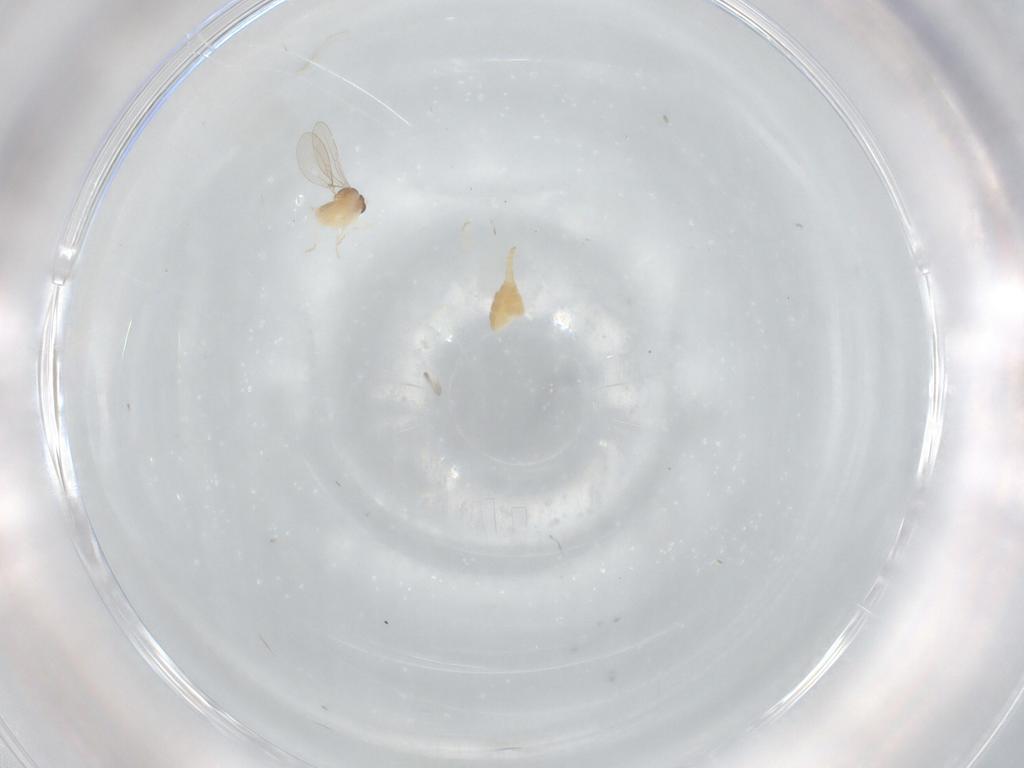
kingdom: Animalia
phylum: Arthropoda
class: Insecta
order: Diptera
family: Cecidomyiidae
